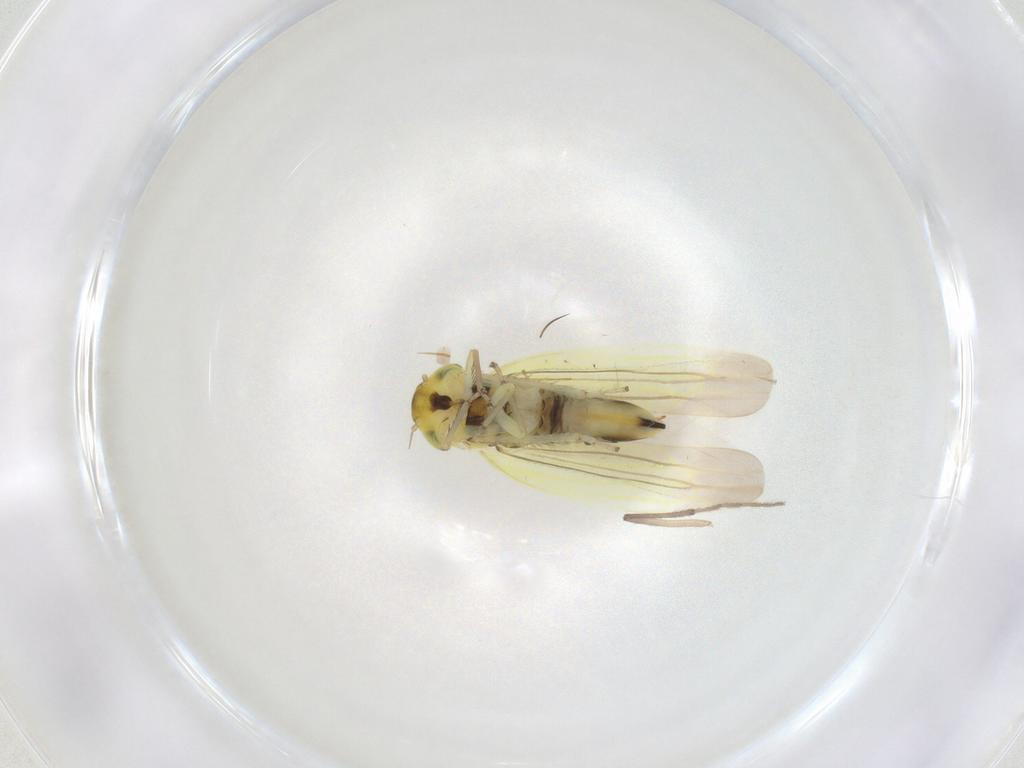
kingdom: Animalia
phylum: Arthropoda
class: Insecta
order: Hemiptera
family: Cicadellidae
